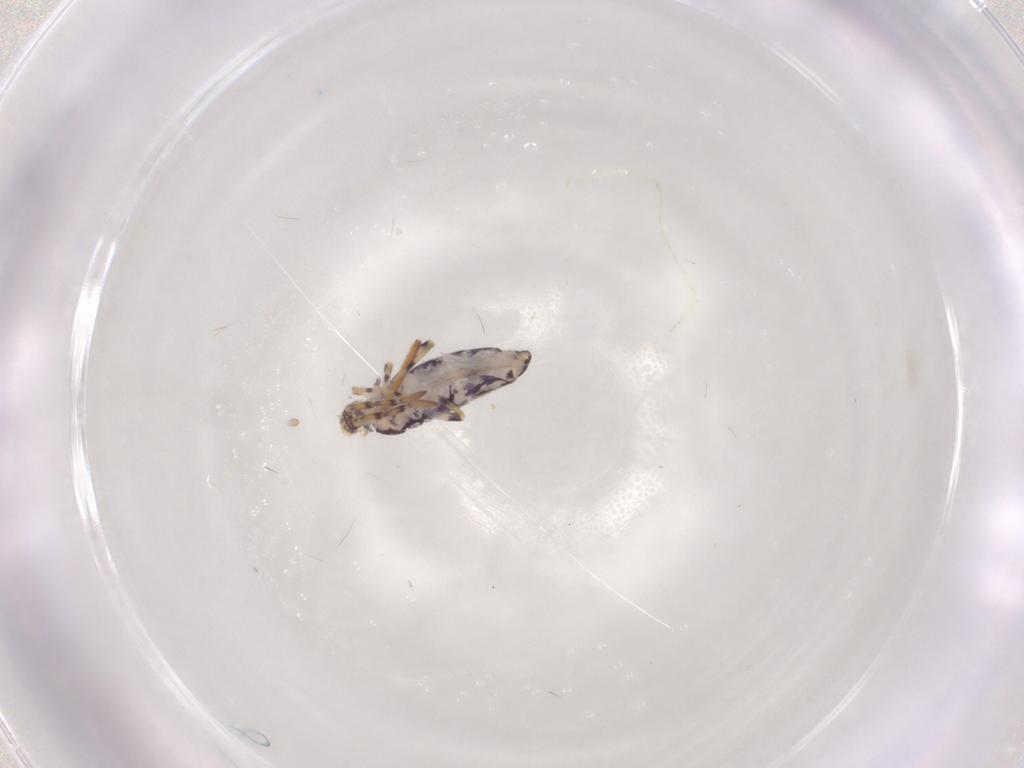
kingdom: Animalia
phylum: Arthropoda
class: Collembola
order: Entomobryomorpha
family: Entomobryidae
